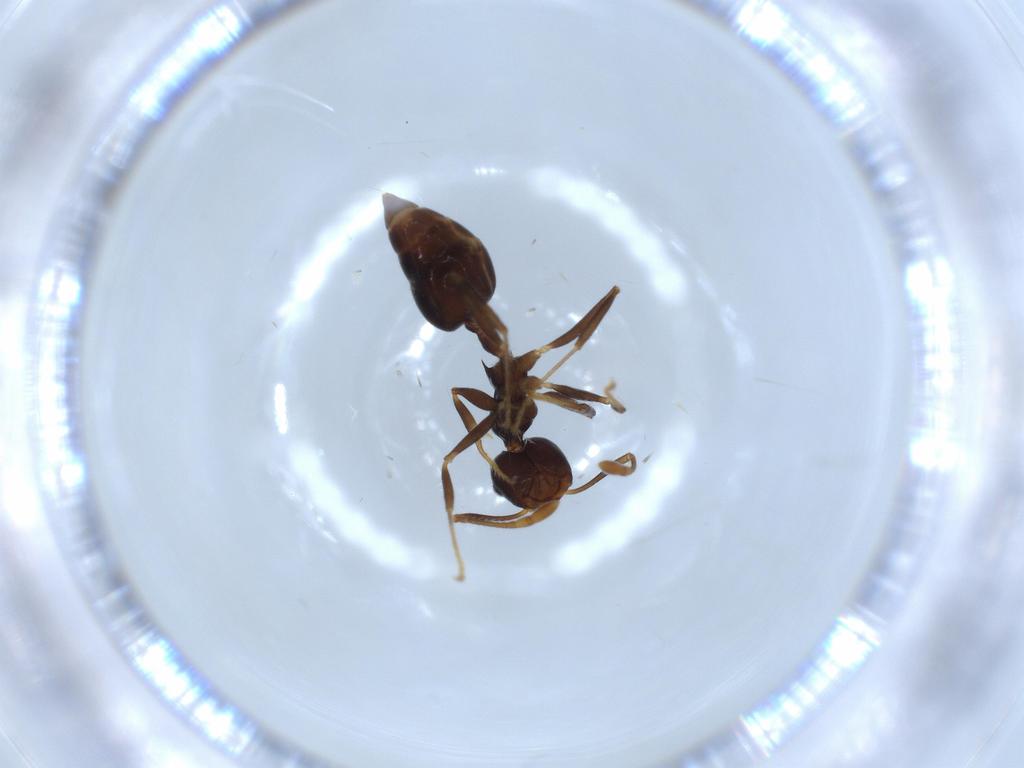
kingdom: Animalia
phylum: Arthropoda
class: Insecta
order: Hymenoptera
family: Formicidae
